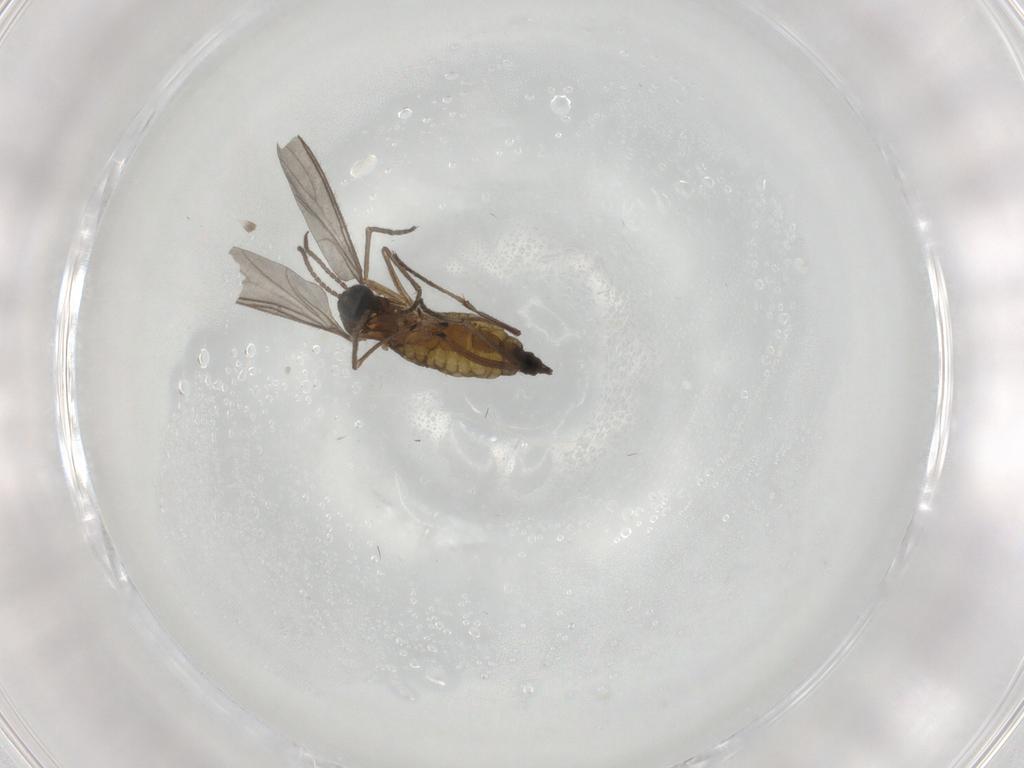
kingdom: Animalia
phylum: Arthropoda
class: Insecta
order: Diptera
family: Sciaridae
